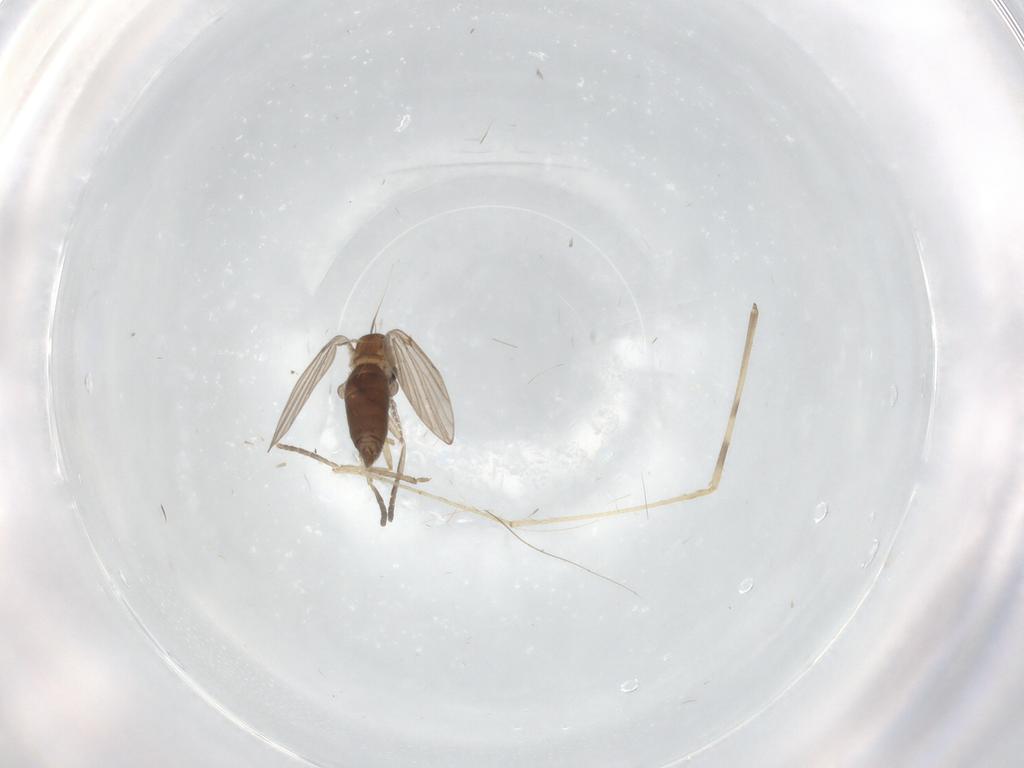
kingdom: Animalia
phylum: Arthropoda
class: Insecta
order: Diptera
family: Limoniidae
